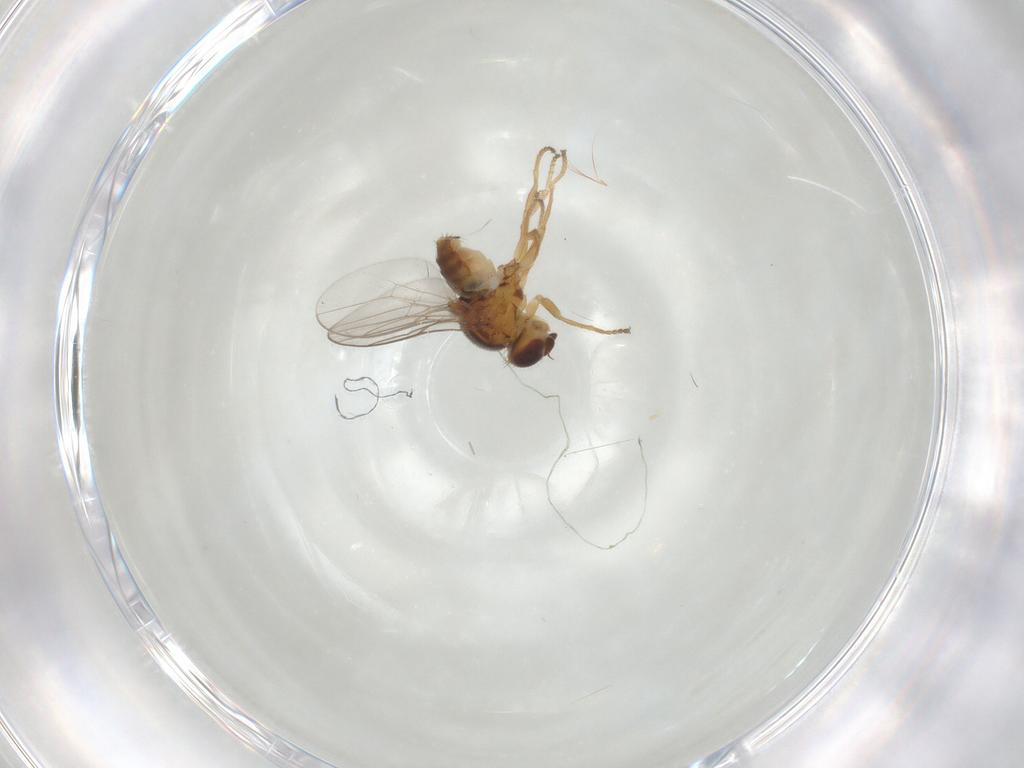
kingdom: Animalia
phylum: Arthropoda
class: Insecta
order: Diptera
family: Chloropidae
